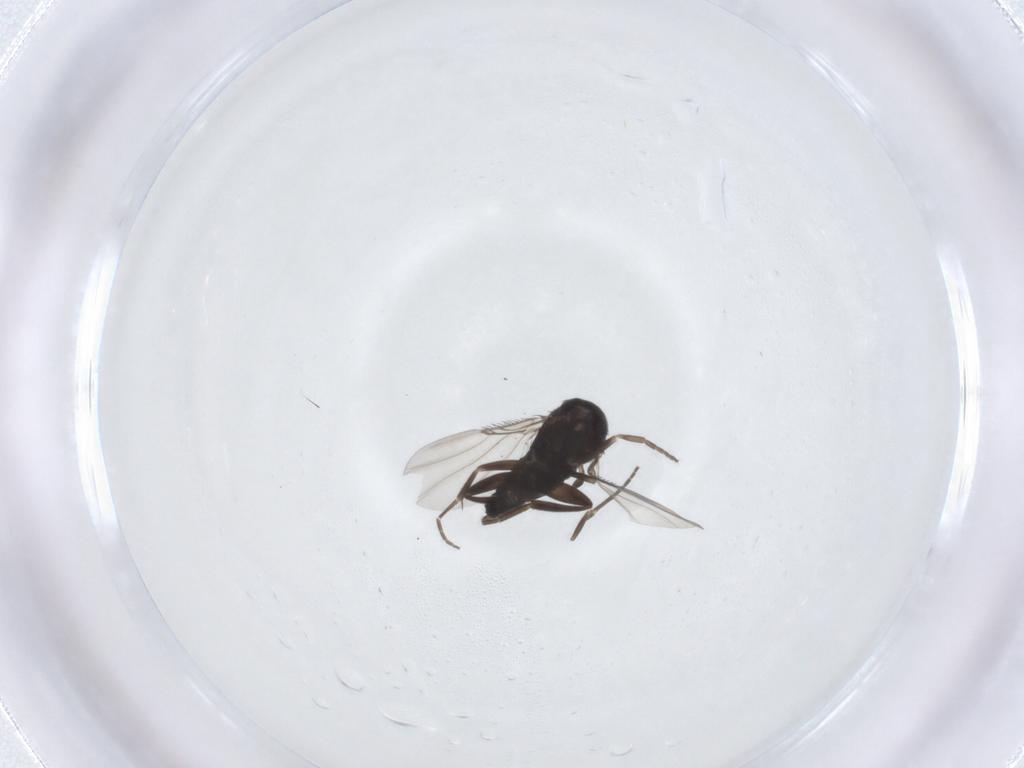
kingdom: Animalia
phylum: Arthropoda
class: Insecta
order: Diptera
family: Phoridae
